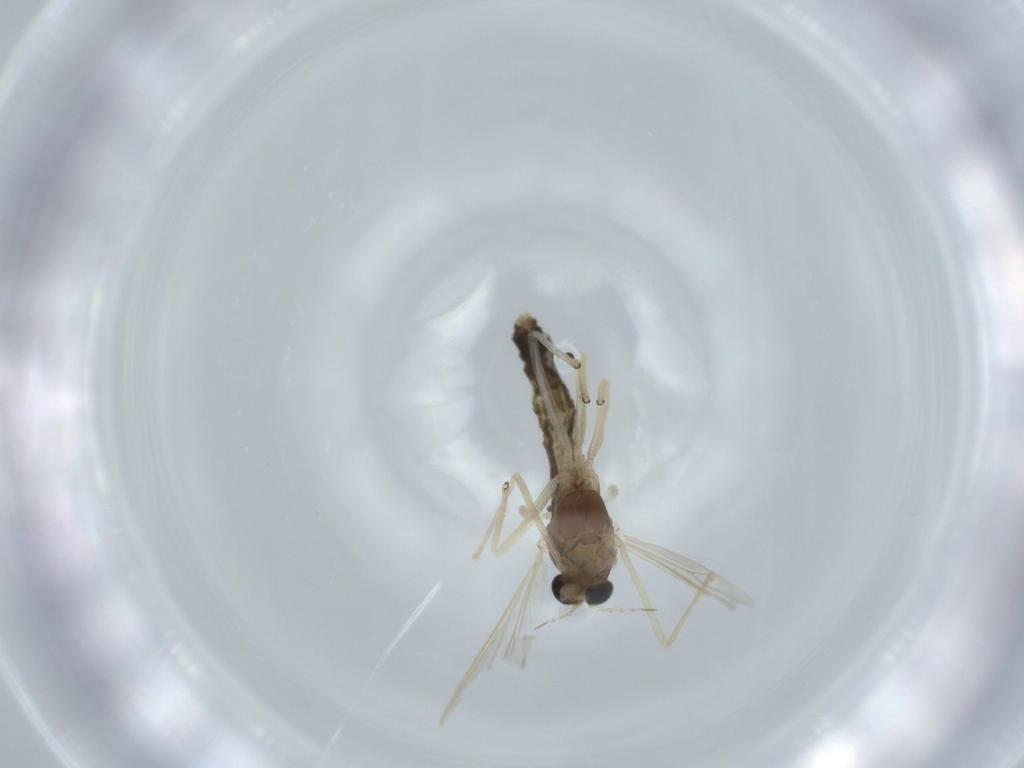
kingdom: Animalia
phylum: Arthropoda
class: Insecta
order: Diptera
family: Chironomidae
